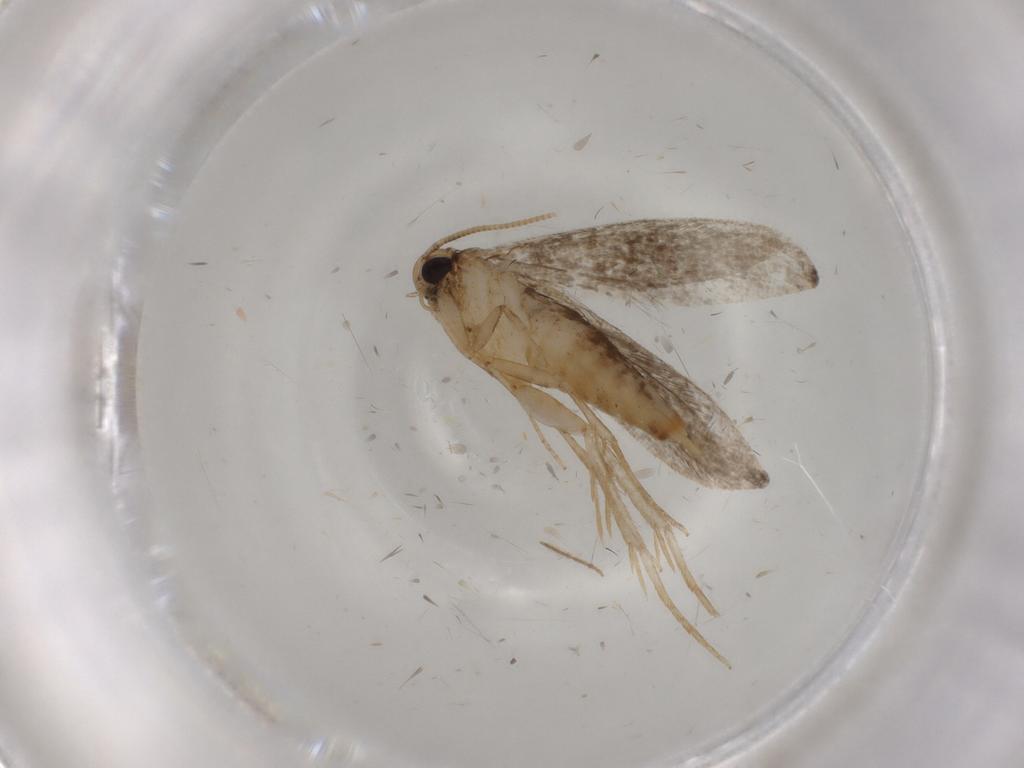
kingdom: Animalia
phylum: Arthropoda
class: Insecta
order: Lepidoptera
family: Tineidae
